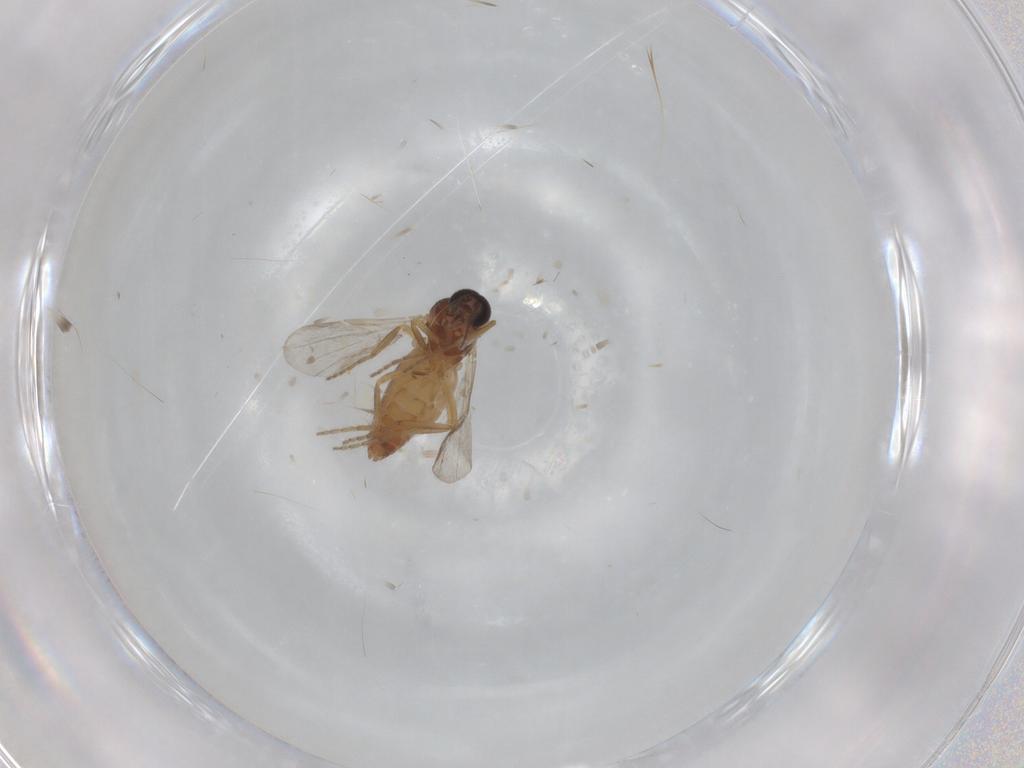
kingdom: Animalia
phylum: Arthropoda
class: Insecta
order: Diptera
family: Ceratopogonidae
